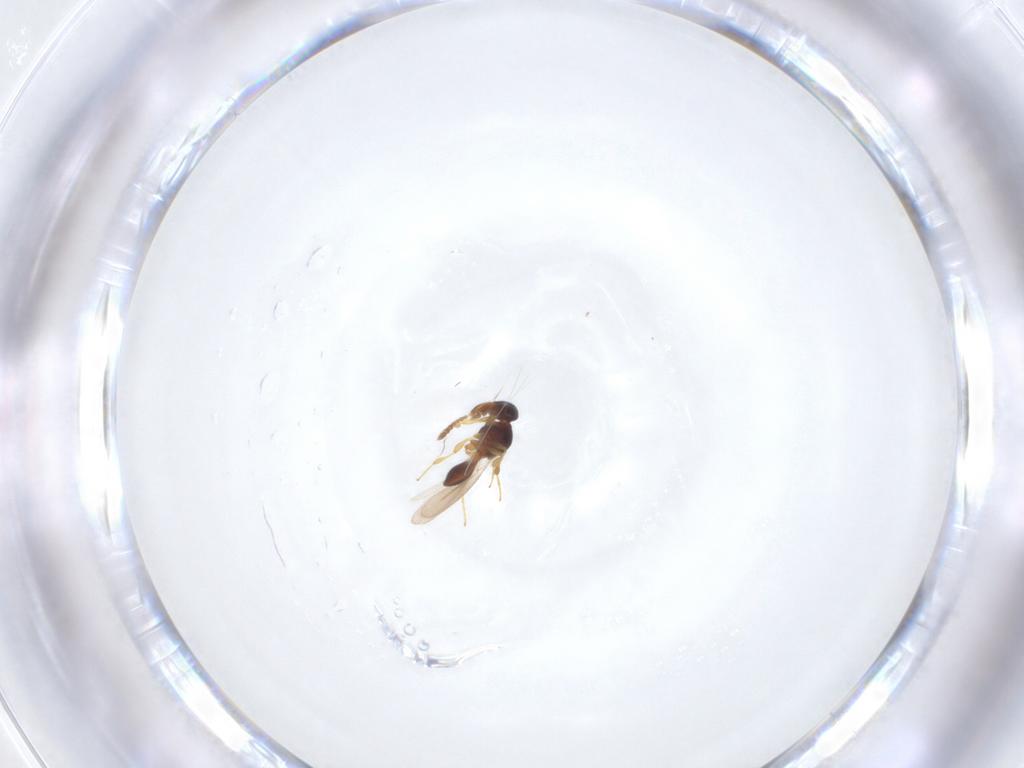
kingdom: Animalia
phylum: Arthropoda
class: Insecta
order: Hymenoptera
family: Platygastridae
